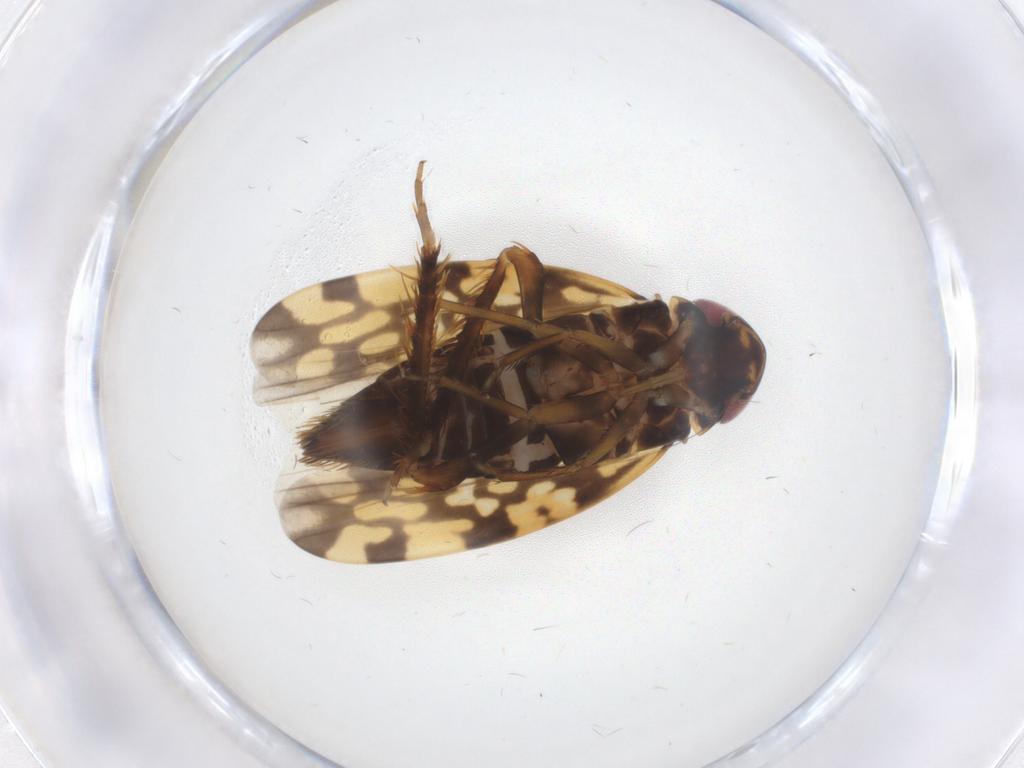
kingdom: Animalia
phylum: Arthropoda
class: Insecta
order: Hemiptera
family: Cicadellidae
